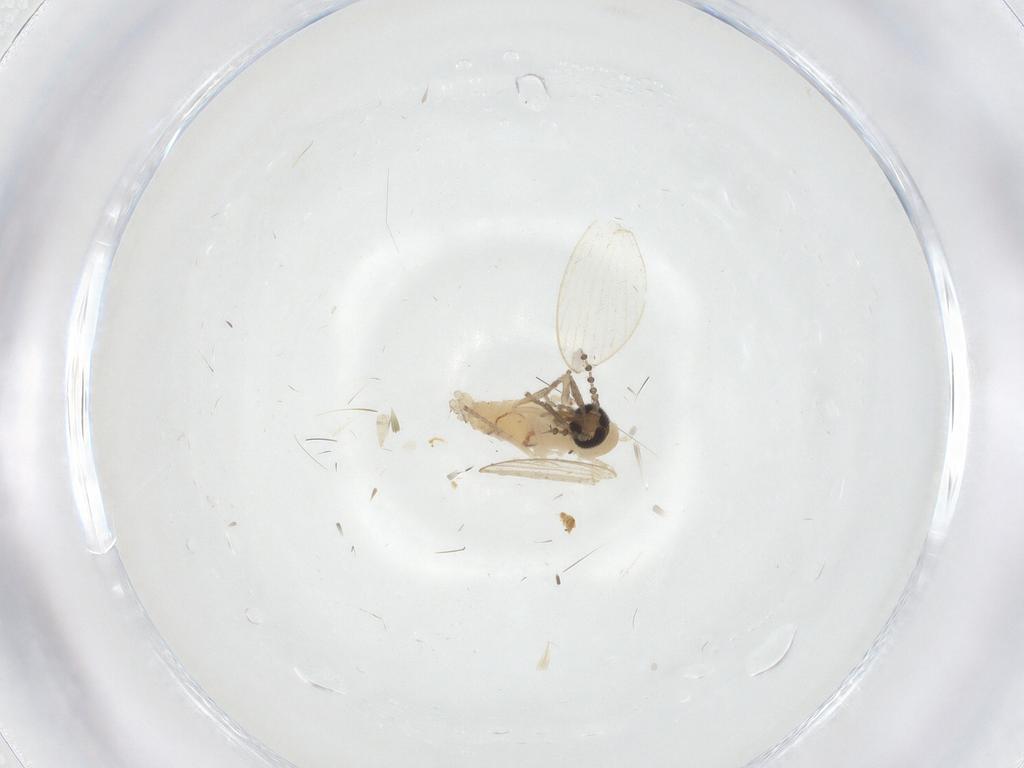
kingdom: Animalia
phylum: Arthropoda
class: Insecta
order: Diptera
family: Psychodidae
